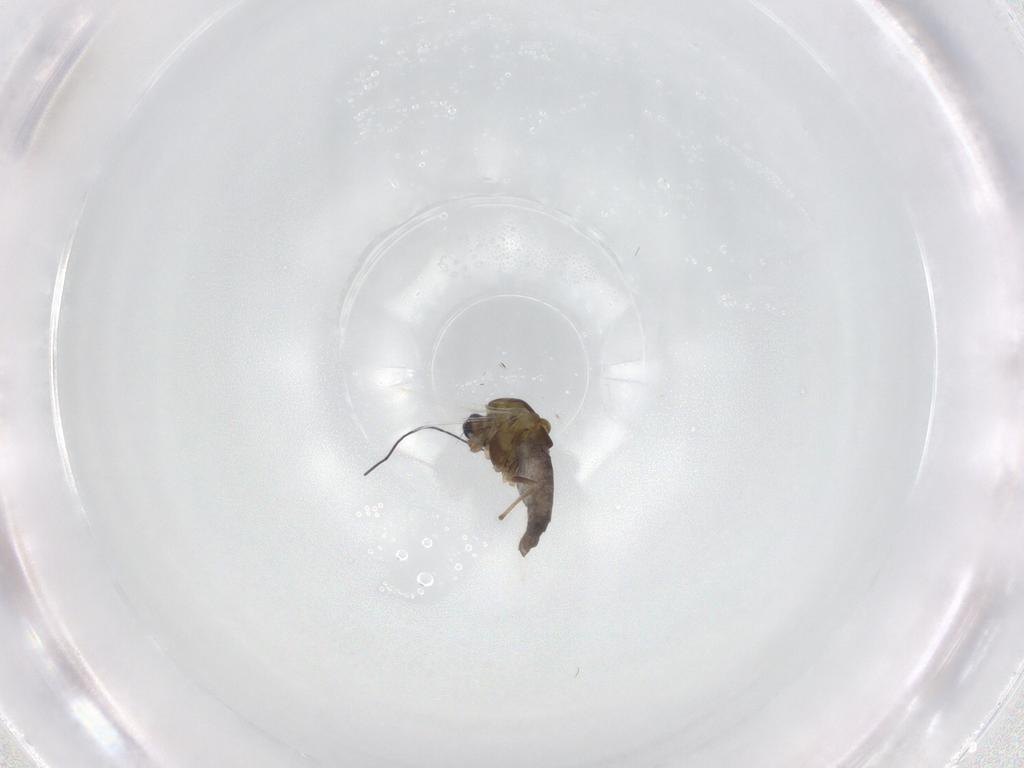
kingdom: Animalia
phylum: Arthropoda
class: Insecta
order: Diptera
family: Chironomidae
